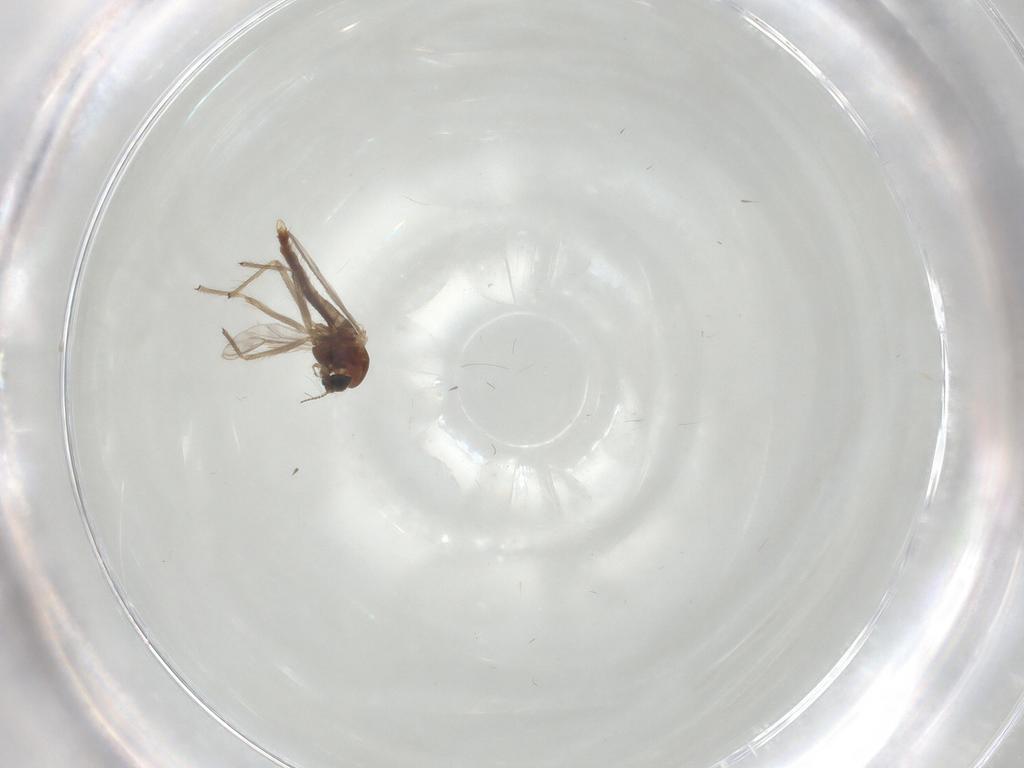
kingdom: Animalia
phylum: Arthropoda
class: Insecta
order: Diptera
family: Chironomidae
